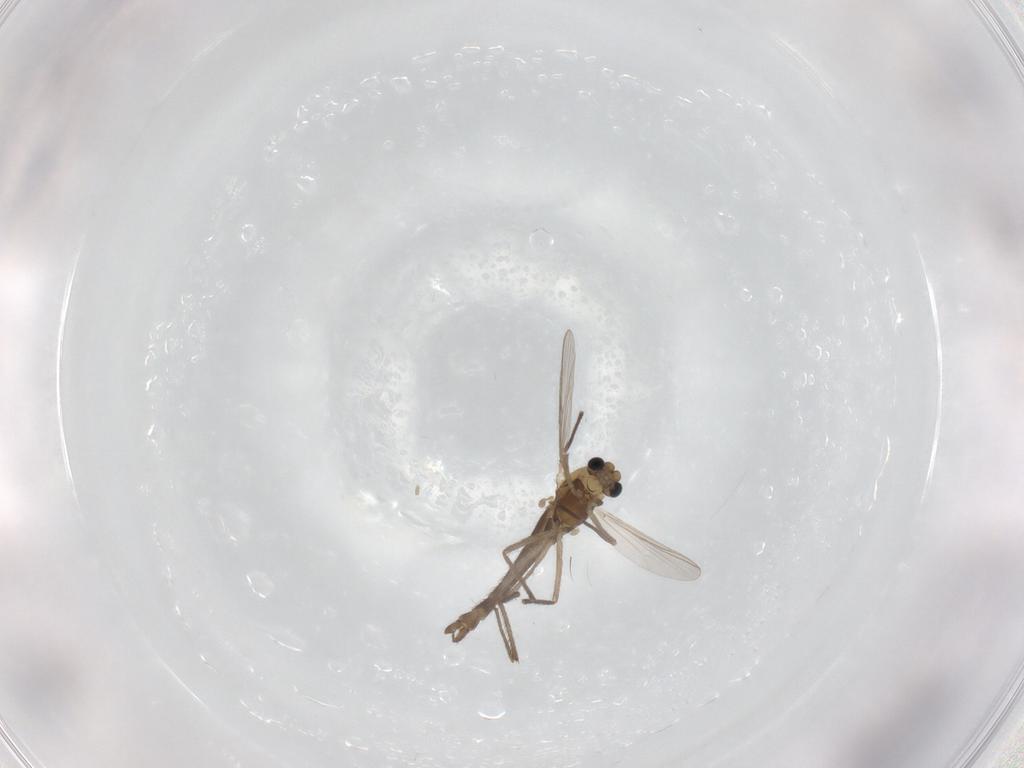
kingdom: Animalia
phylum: Arthropoda
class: Insecta
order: Diptera
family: Chironomidae
